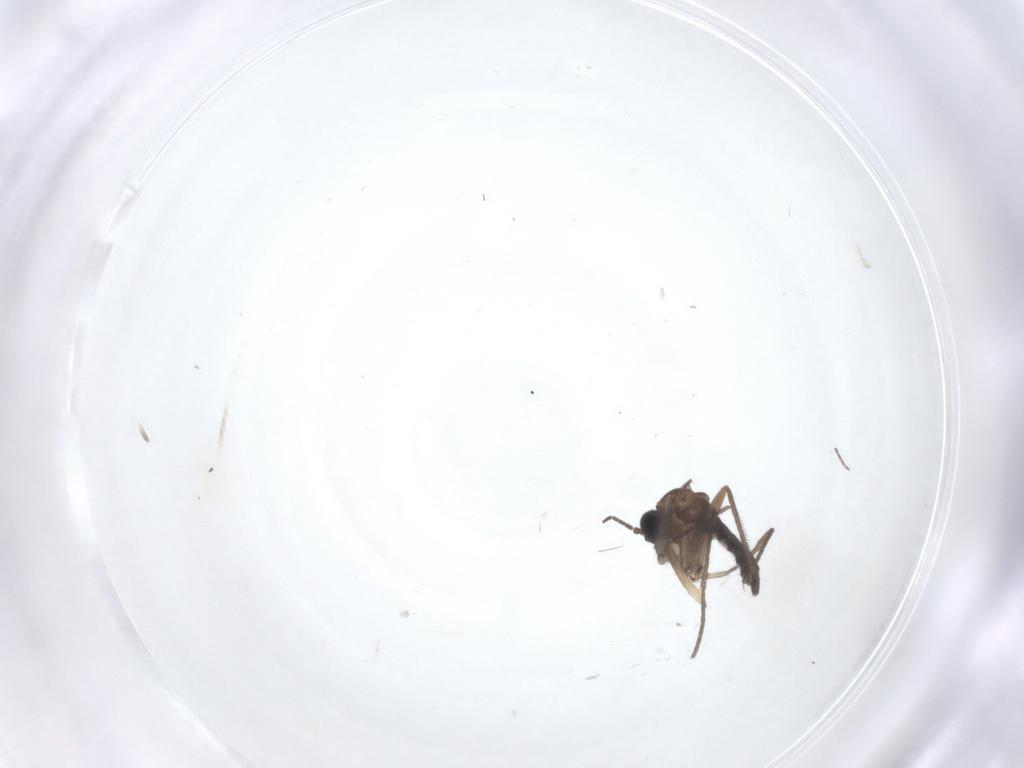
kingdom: Animalia
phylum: Arthropoda
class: Insecta
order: Diptera
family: Sciaridae
